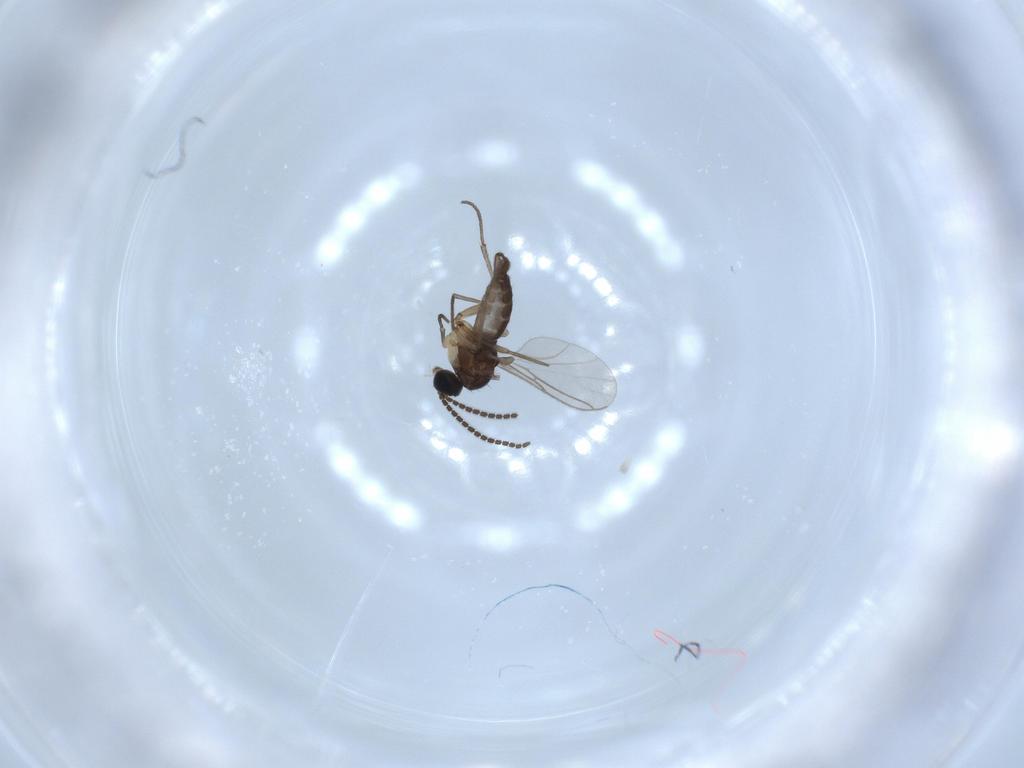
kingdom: Animalia
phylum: Arthropoda
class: Insecta
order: Diptera
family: Sciaridae
